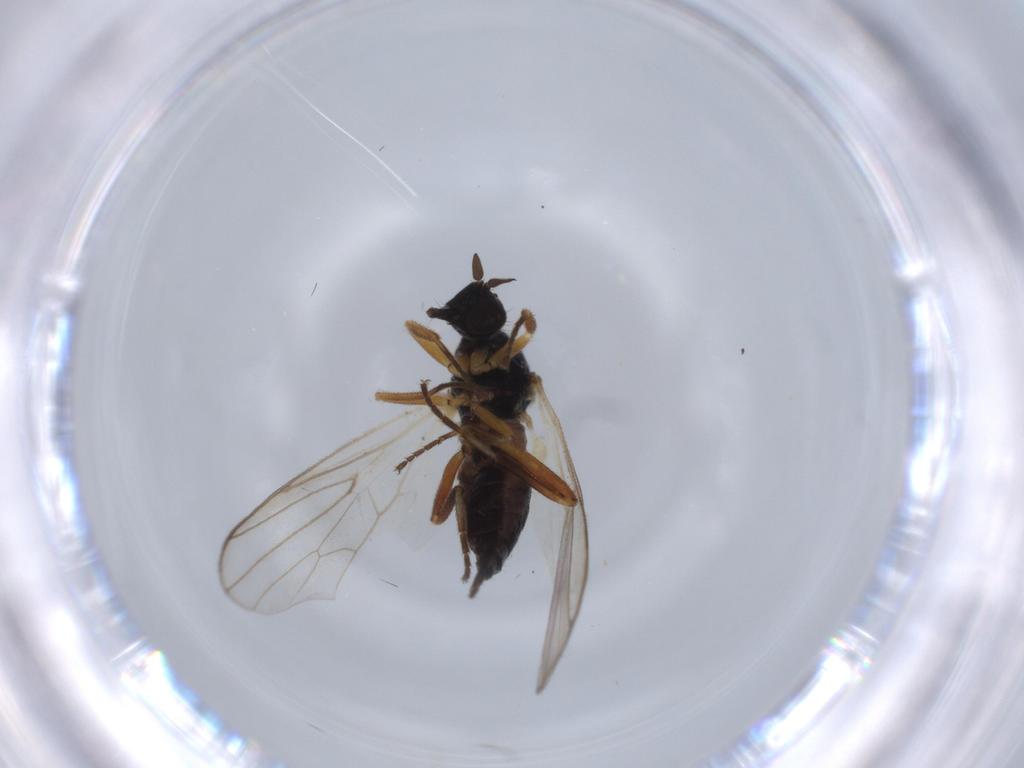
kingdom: Animalia
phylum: Arthropoda
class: Insecta
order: Diptera
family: Hybotidae
